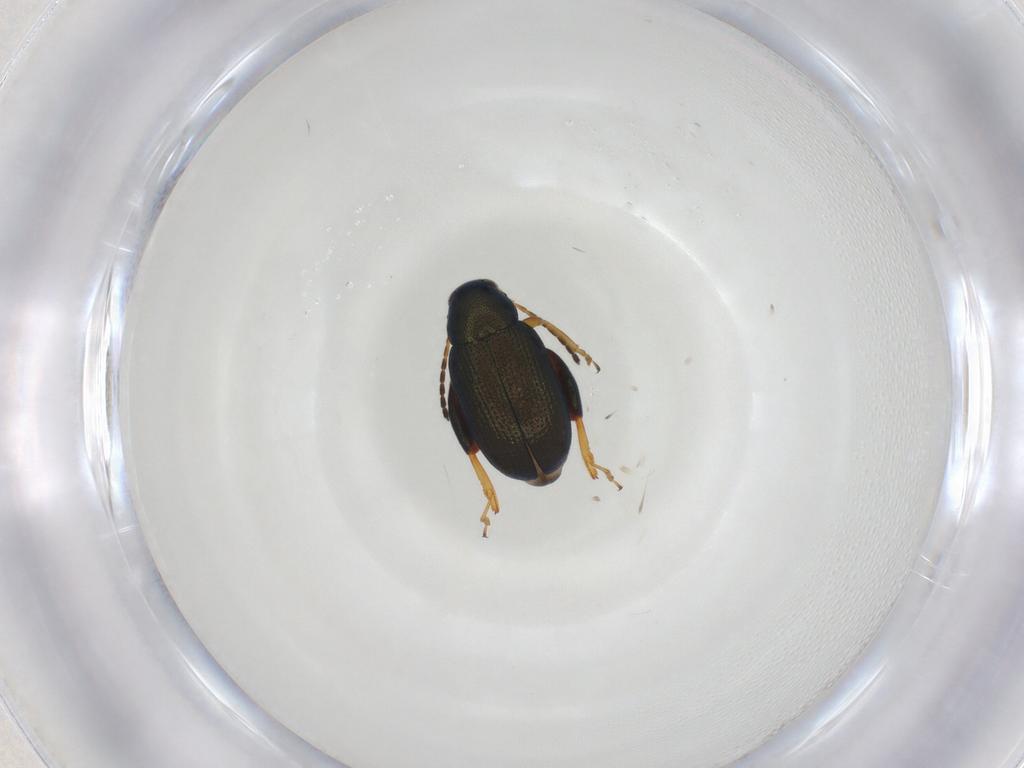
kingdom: Animalia
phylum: Arthropoda
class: Insecta
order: Coleoptera
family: Chrysomelidae
